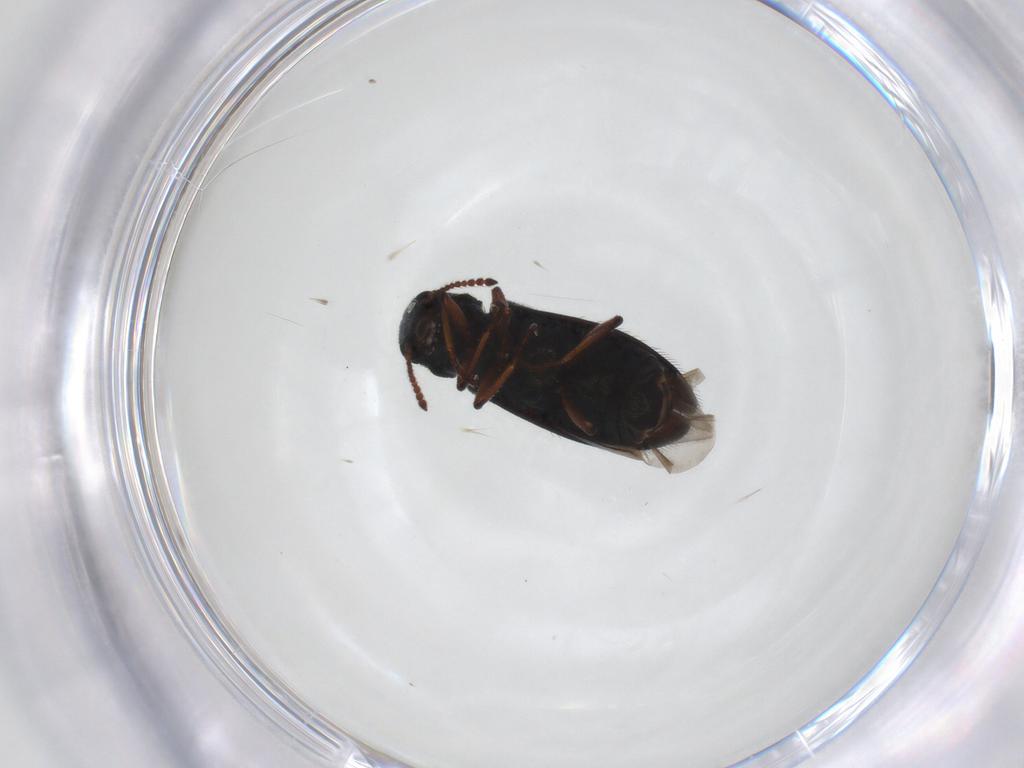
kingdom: Animalia
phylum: Arthropoda
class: Insecta
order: Coleoptera
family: Melyridae
